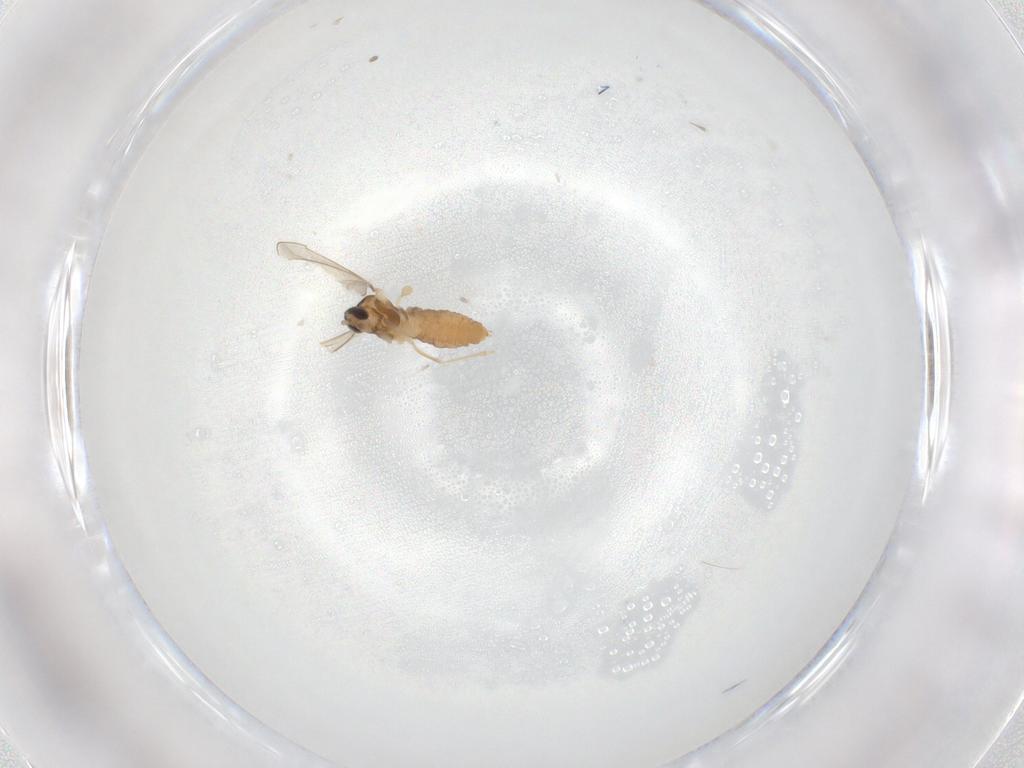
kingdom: Animalia
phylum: Arthropoda
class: Insecta
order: Diptera
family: Cecidomyiidae
